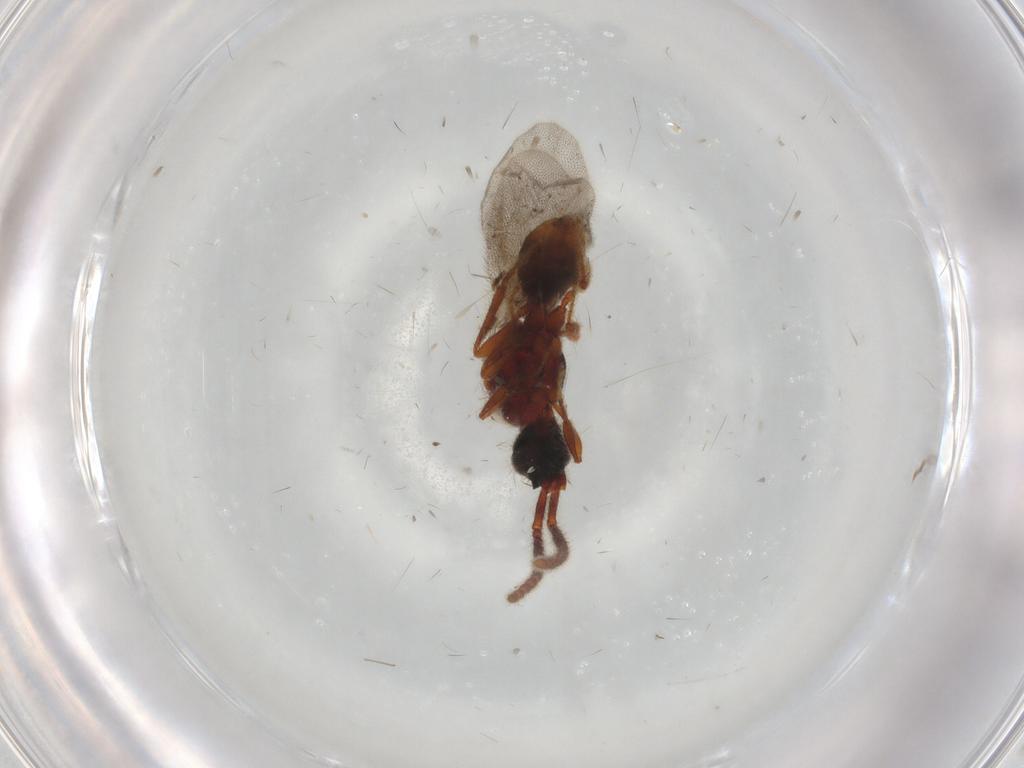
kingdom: Animalia
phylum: Arthropoda
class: Insecta
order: Hymenoptera
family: Diapriidae
